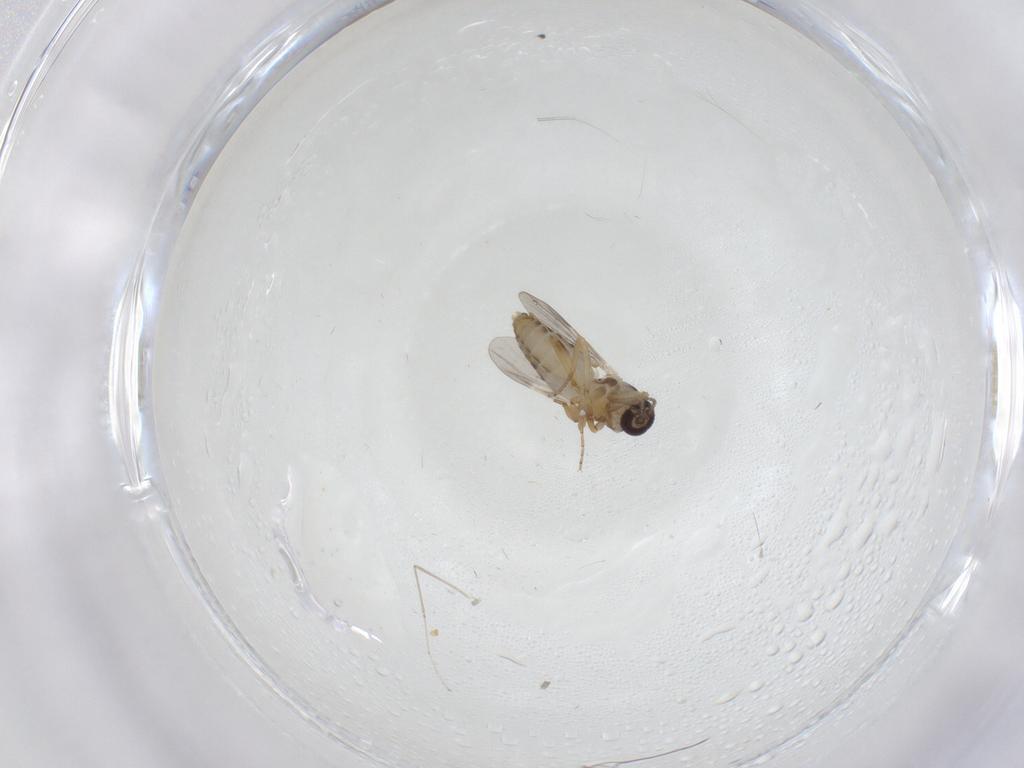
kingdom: Animalia
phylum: Arthropoda
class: Insecta
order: Diptera
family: Ceratopogonidae
